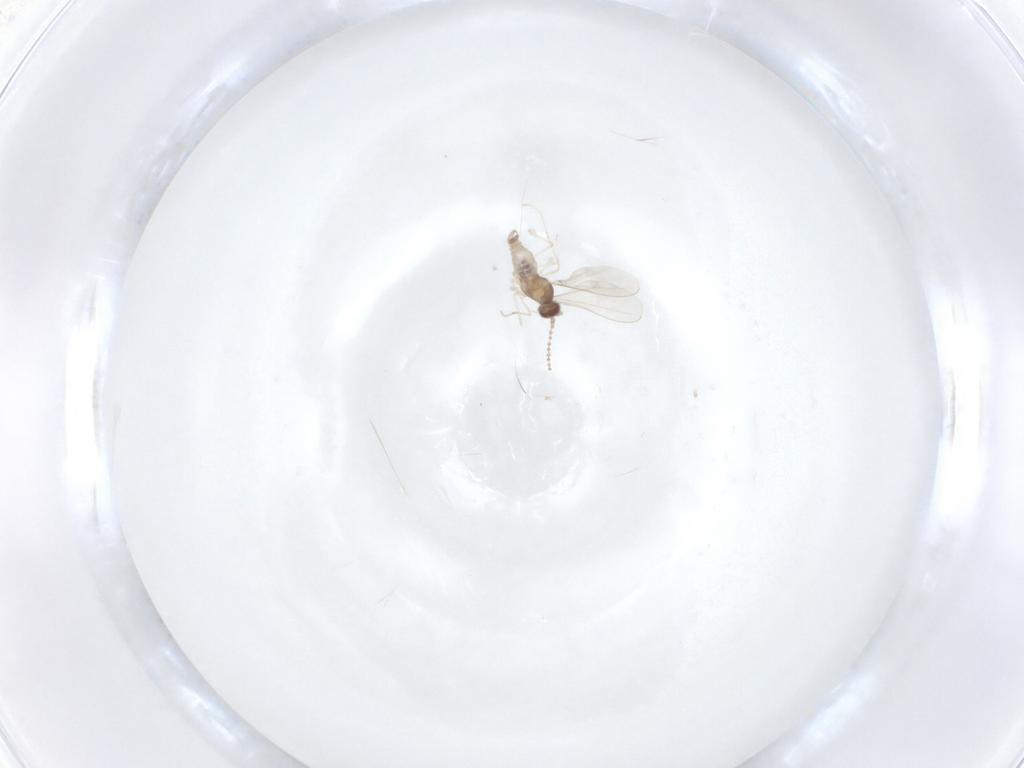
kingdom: Animalia
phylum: Arthropoda
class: Insecta
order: Diptera
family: Cecidomyiidae
